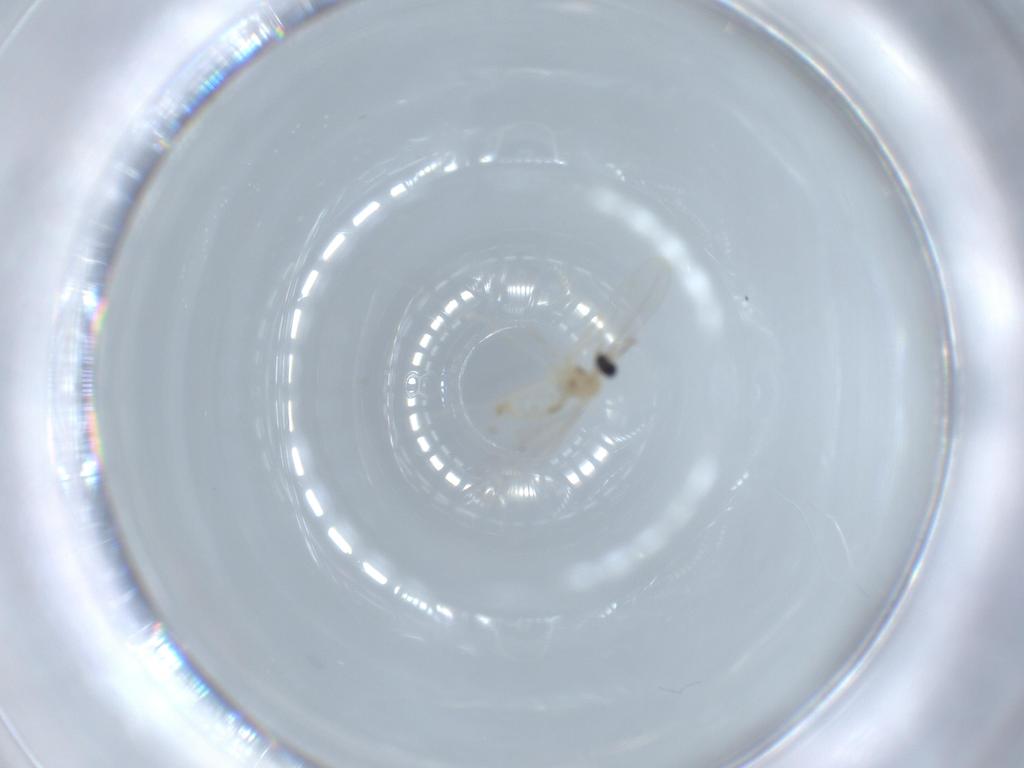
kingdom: Animalia
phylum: Arthropoda
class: Insecta
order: Diptera
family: Cecidomyiidae
